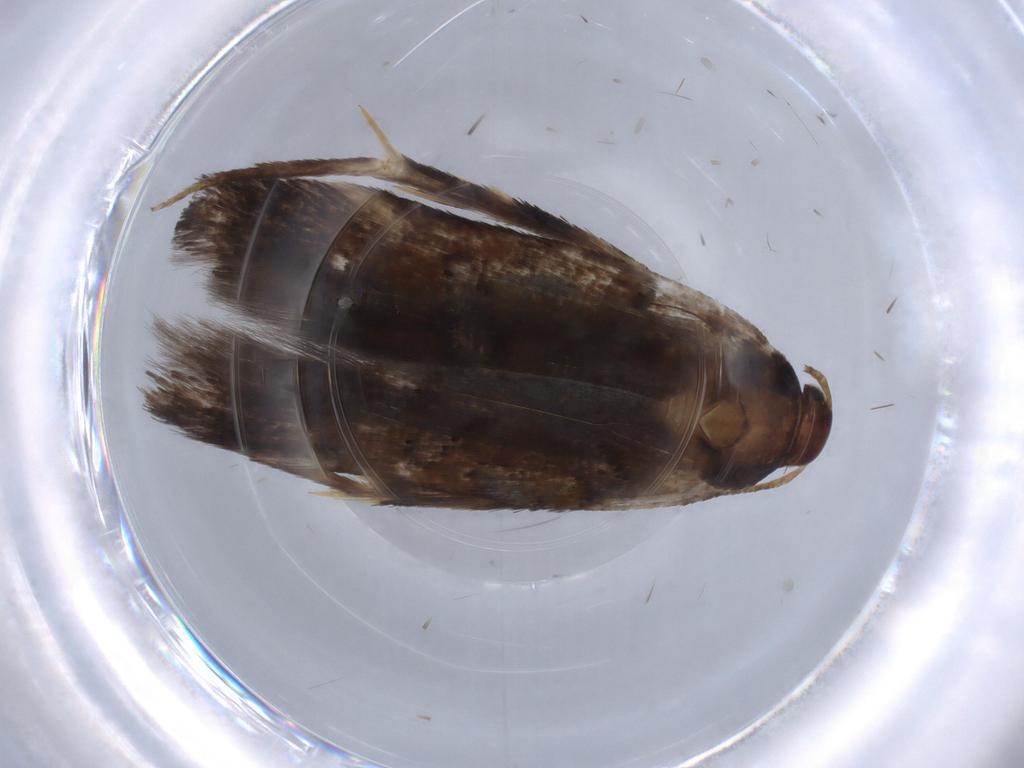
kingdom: Animalia
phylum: Arthropoda
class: Insecta
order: Lepidoptera
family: Gelechiidae
